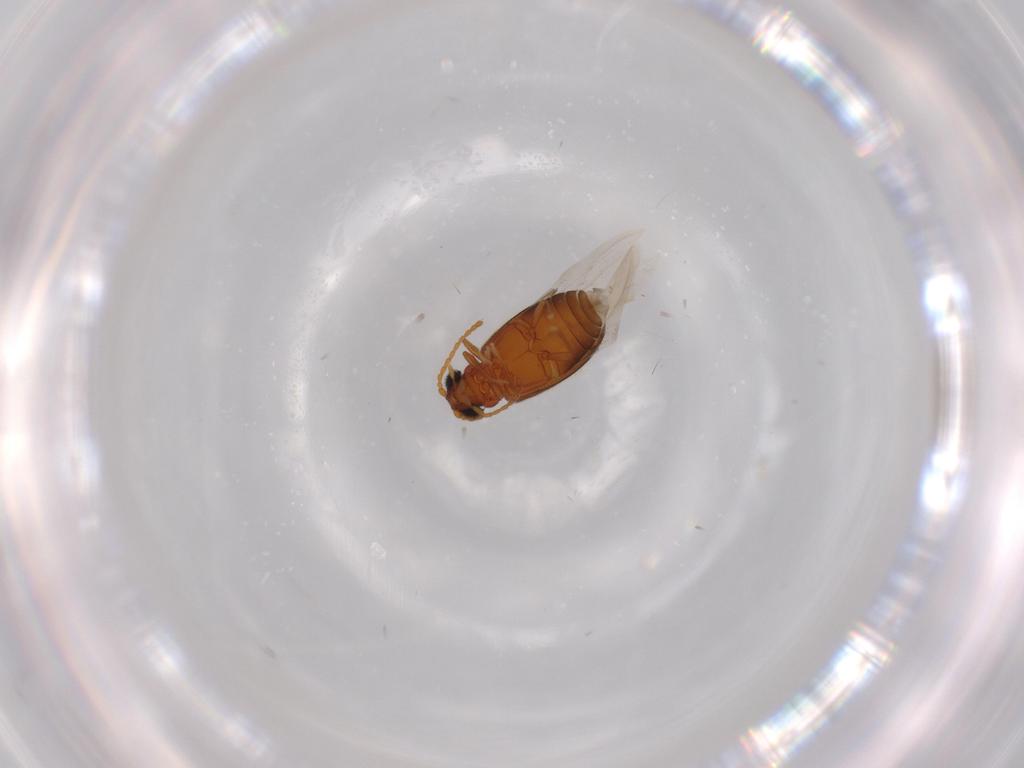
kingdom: Animalia
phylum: Arthropoda
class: Insecta
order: Coleoptera
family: Aderidae
